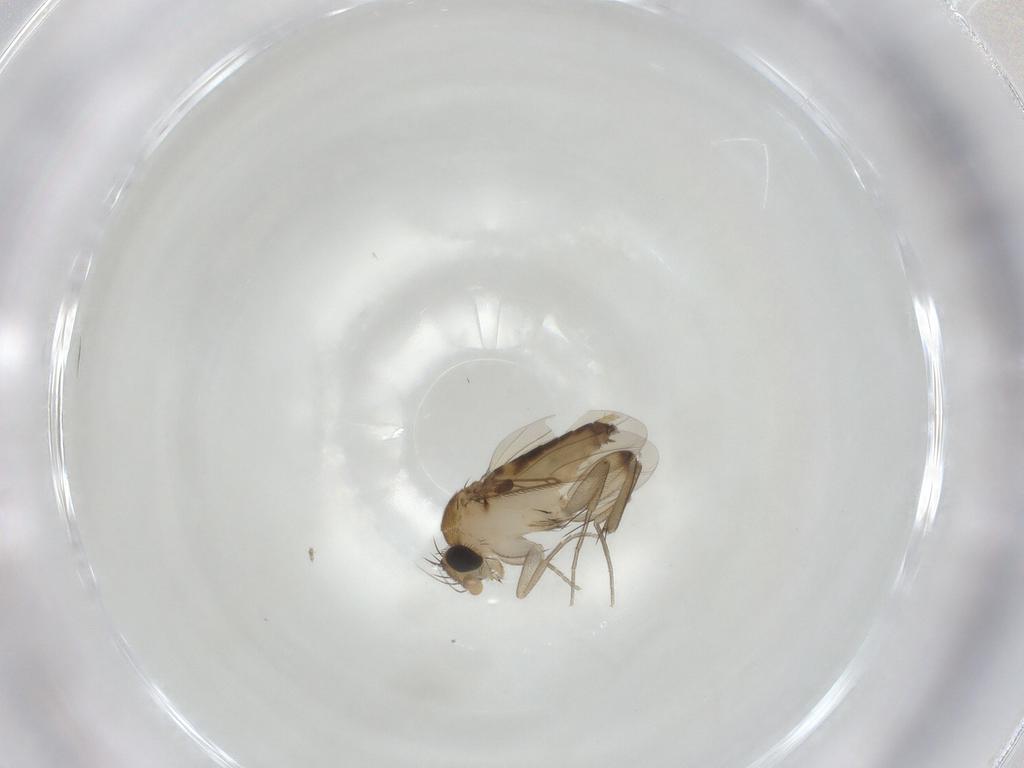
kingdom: Animalia
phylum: Arthropoda
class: Insecta
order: Diptera
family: Phoridae
